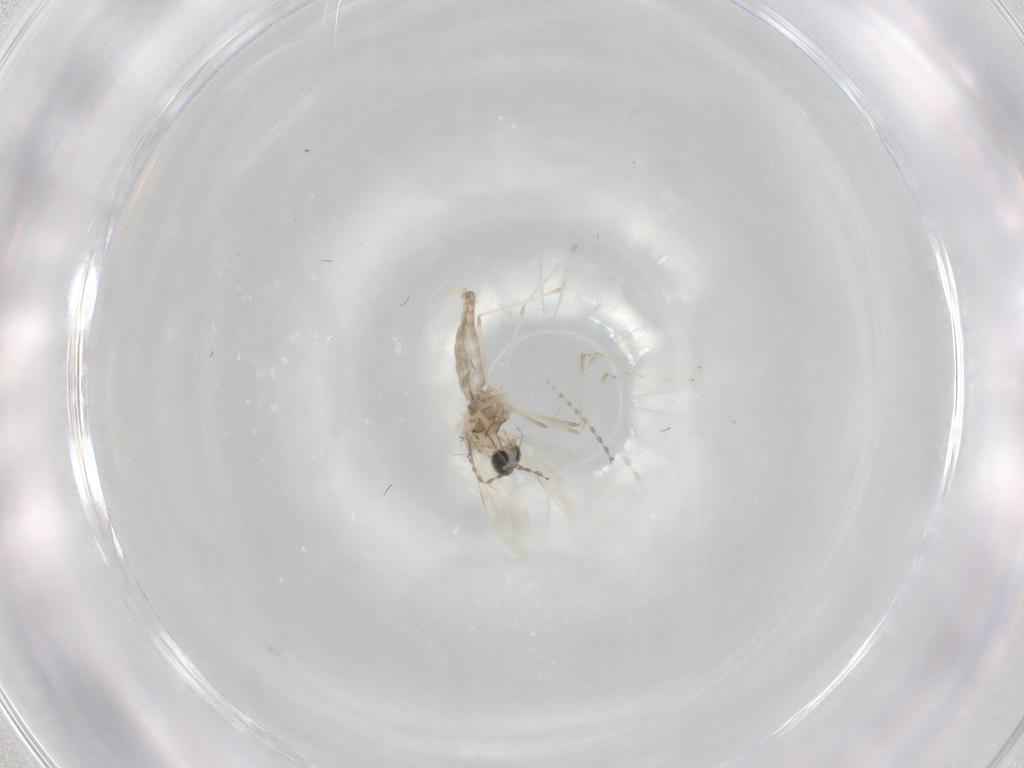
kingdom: Animalia
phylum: Arthropoda
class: Insecta
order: Diptera
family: Cecidomyiidae
